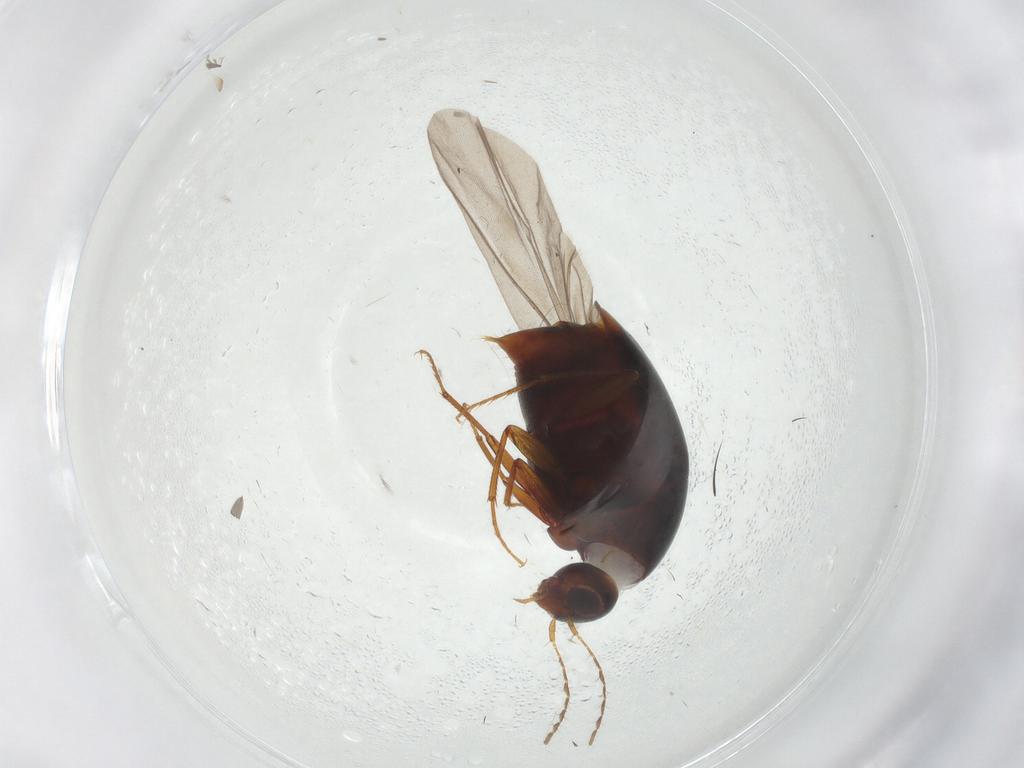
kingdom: Animalia
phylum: Arthropoda
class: Insecta
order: Coleoptera
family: Staphylinidae
